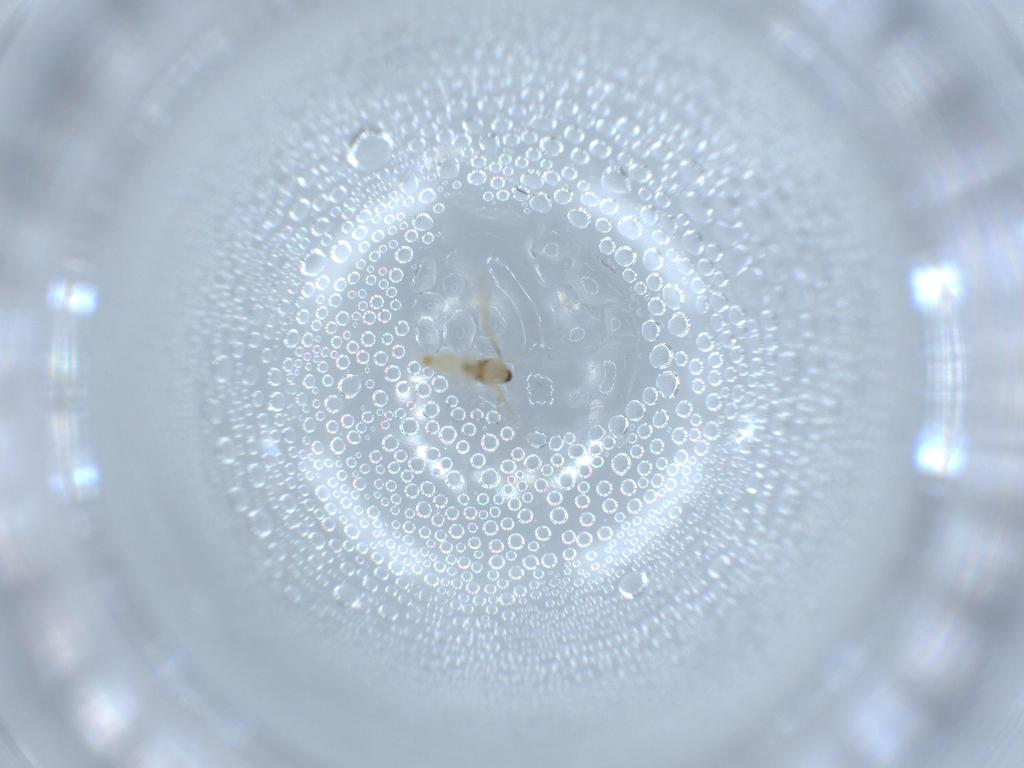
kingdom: Animalia
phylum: Arthropoda
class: Insecta
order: Diptera
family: Cecidomyiidae
